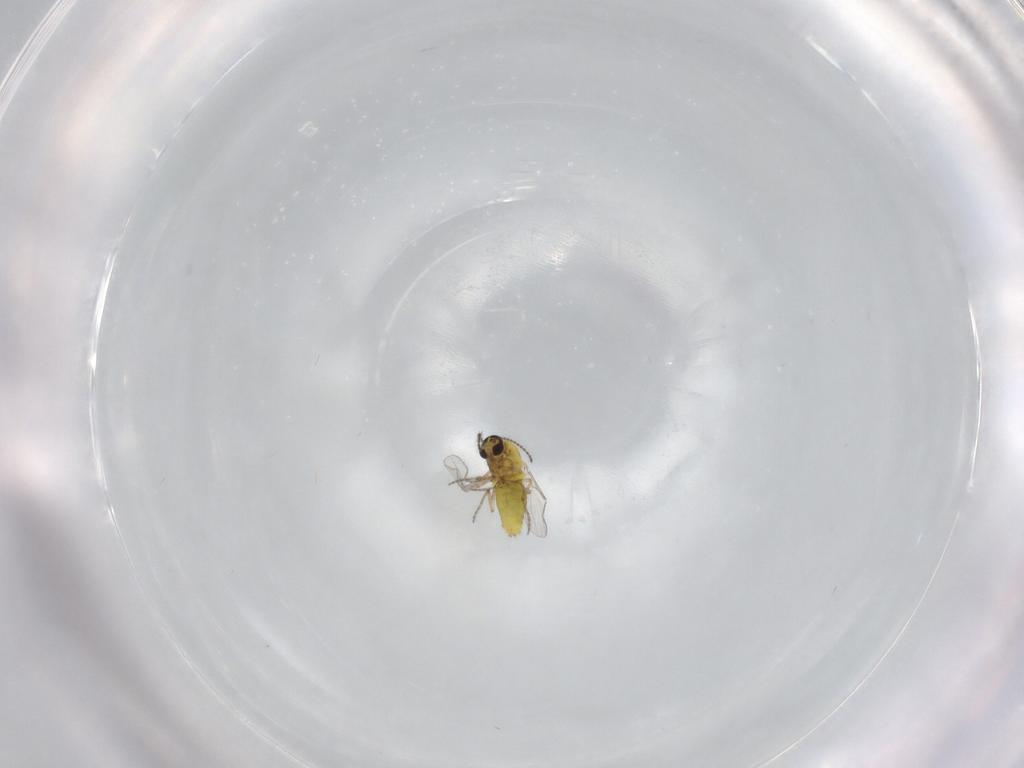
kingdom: Animalia
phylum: Arthropoda
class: Insecta
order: Diptera
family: Ceratopogonidae
